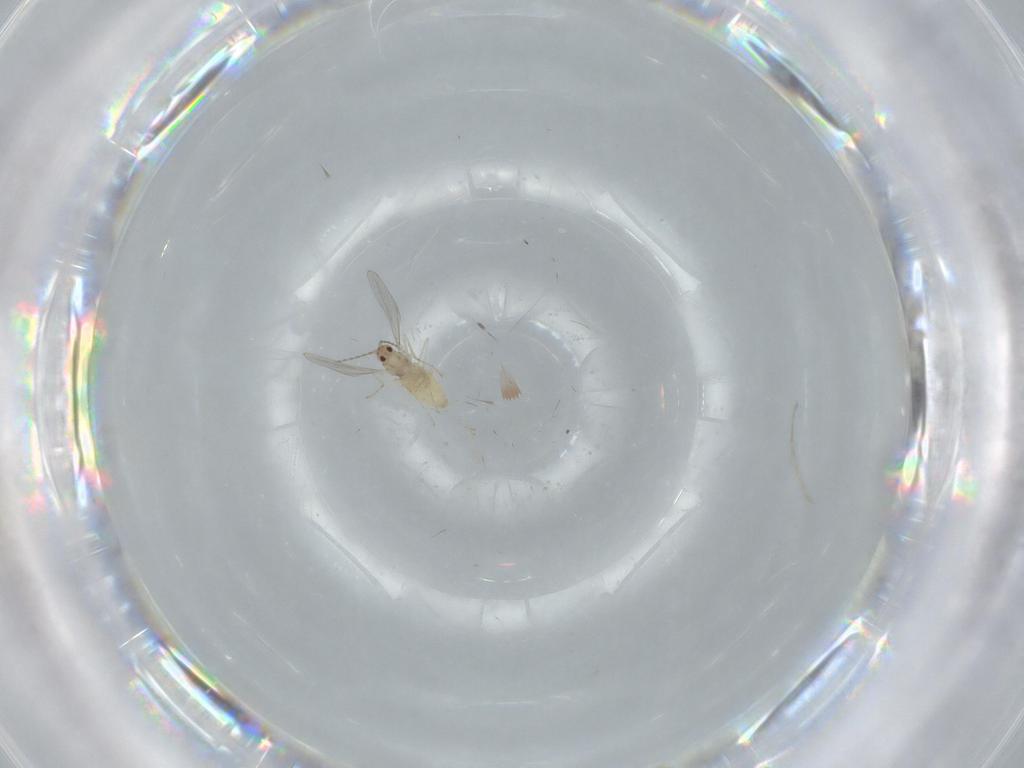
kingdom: Animalia
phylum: Arthropoda
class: Insecta
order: Diptera
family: Cecidomyiidae
